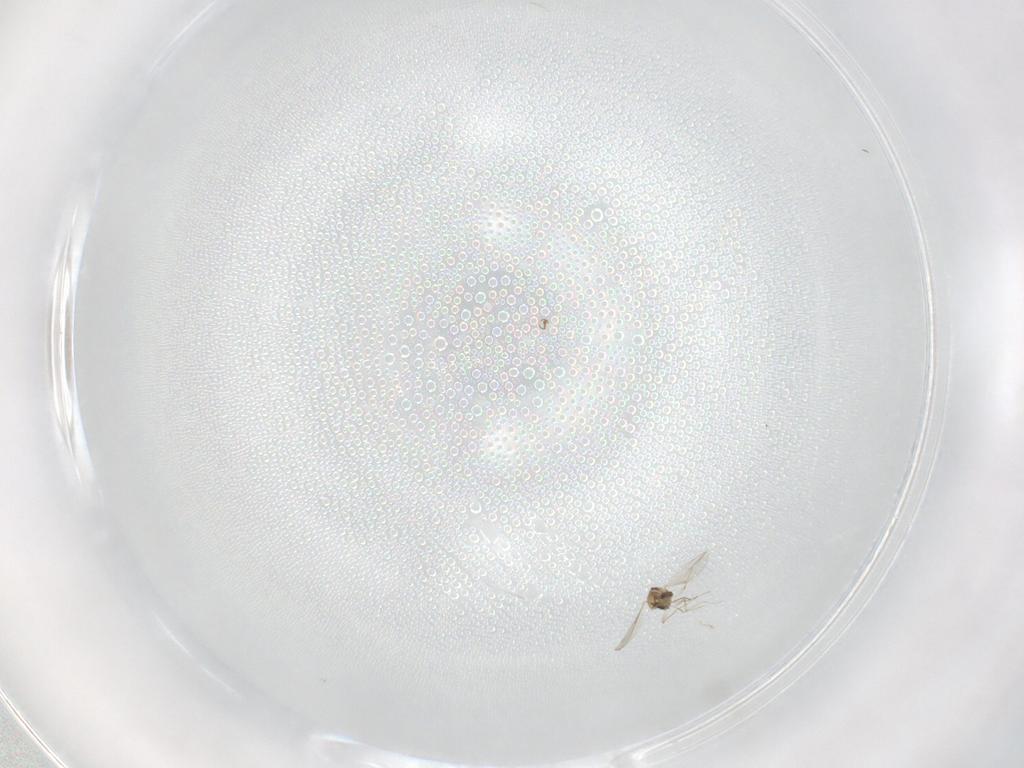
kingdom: Animalia
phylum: Arthropoda
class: Insecta
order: Diptera
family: Ceratopogonidae
